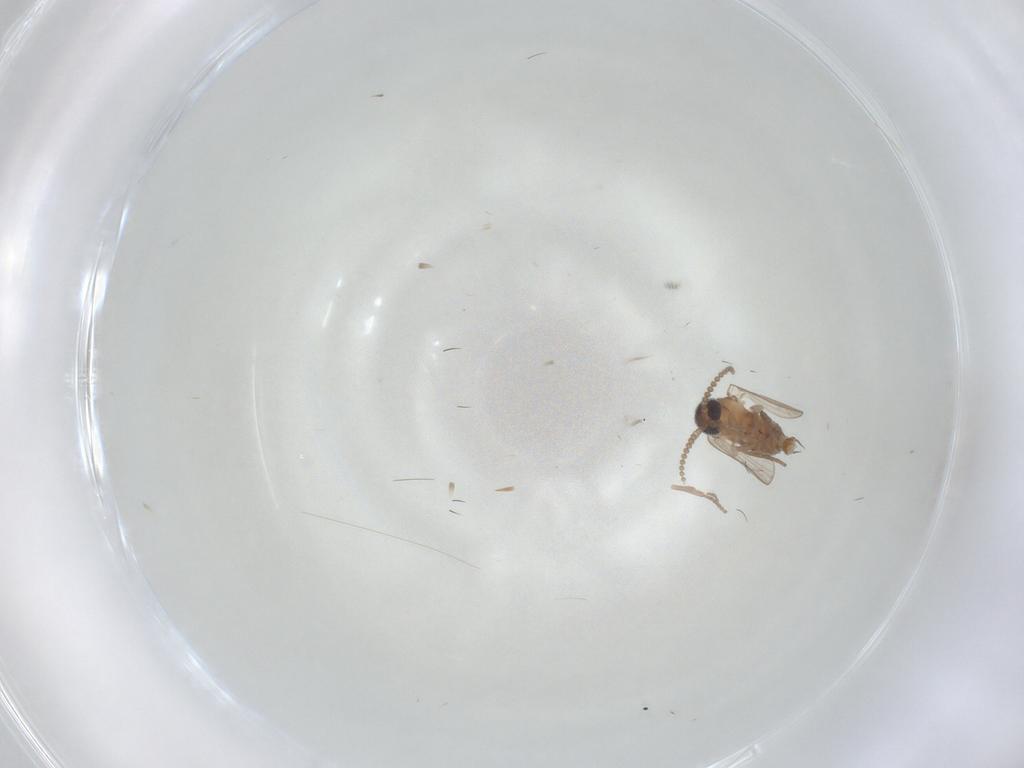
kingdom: Animalia
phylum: Arthropoda
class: Insecta
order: Diptera
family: Psychodidae
